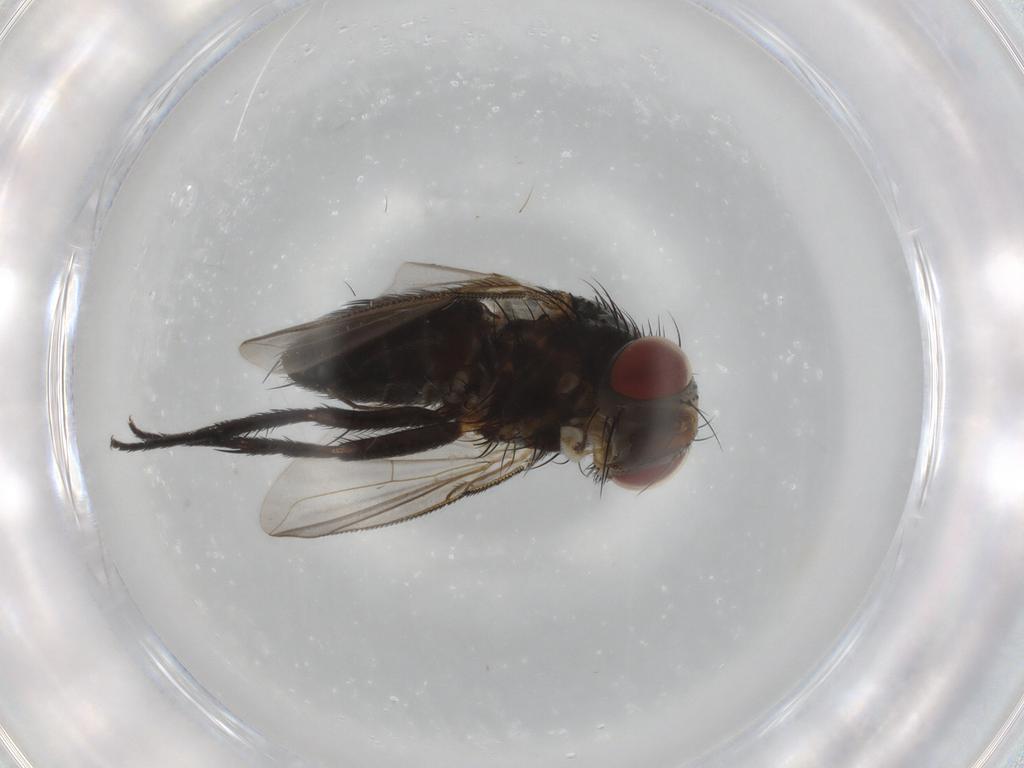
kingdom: Animalia
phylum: Arthropoda
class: Insecta
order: Diptera
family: Tachinidae
